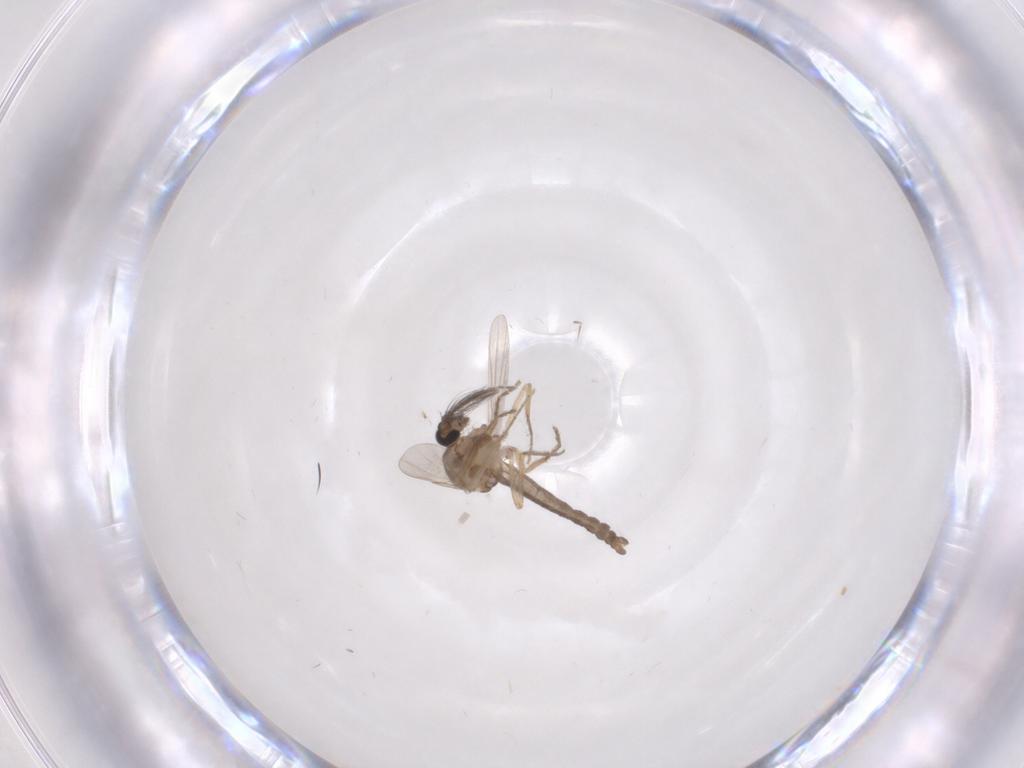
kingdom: Animalia
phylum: Arthropoda
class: Insecta
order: Diptera
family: Ceratopogonidae
